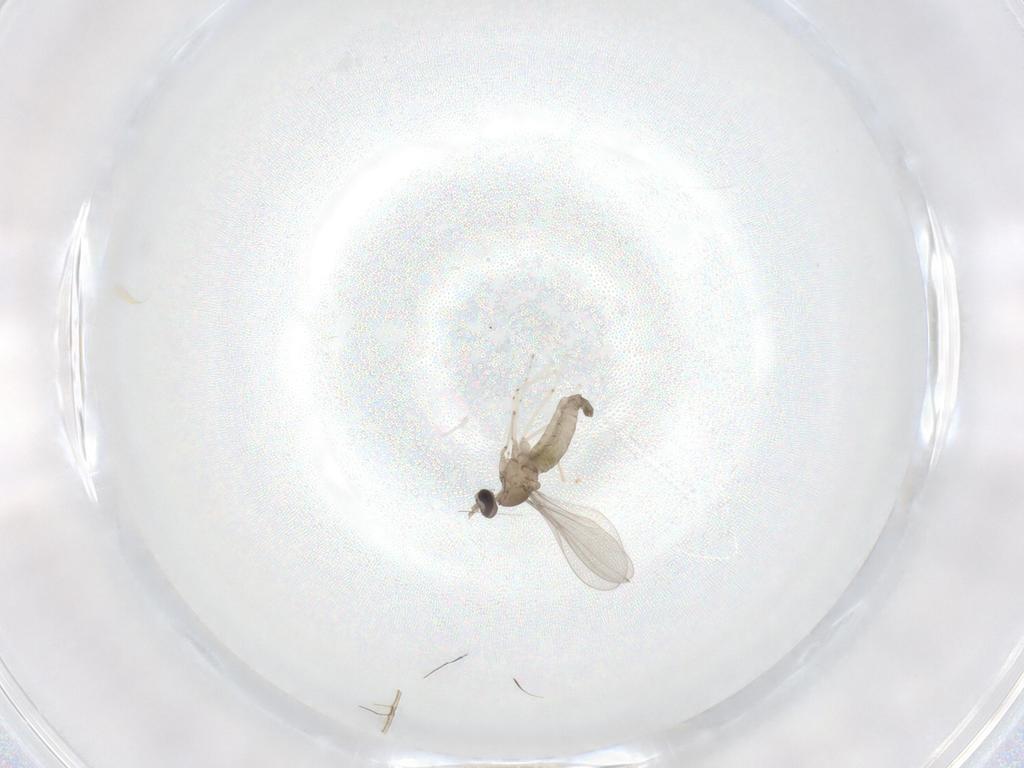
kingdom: Animalia
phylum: Arthropoda
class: Insecta
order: Diptera
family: Cecidomyiidae
